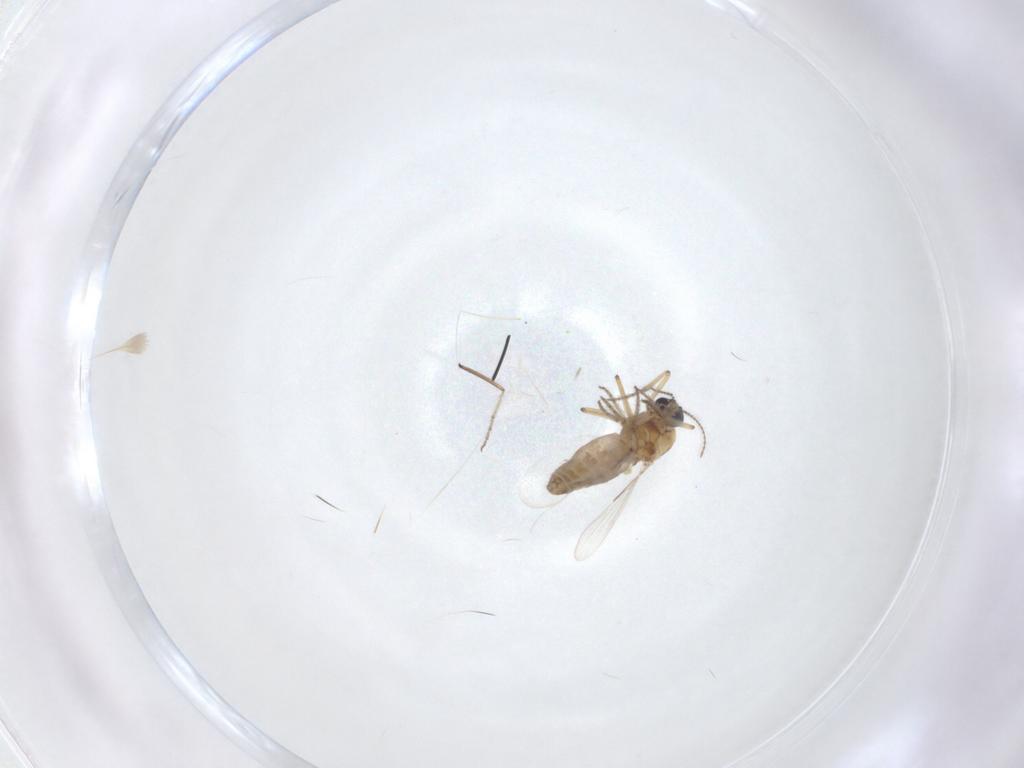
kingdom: Animalia
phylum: Arthropoda
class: Insecta
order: Diptera
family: Ceratopogonidae
